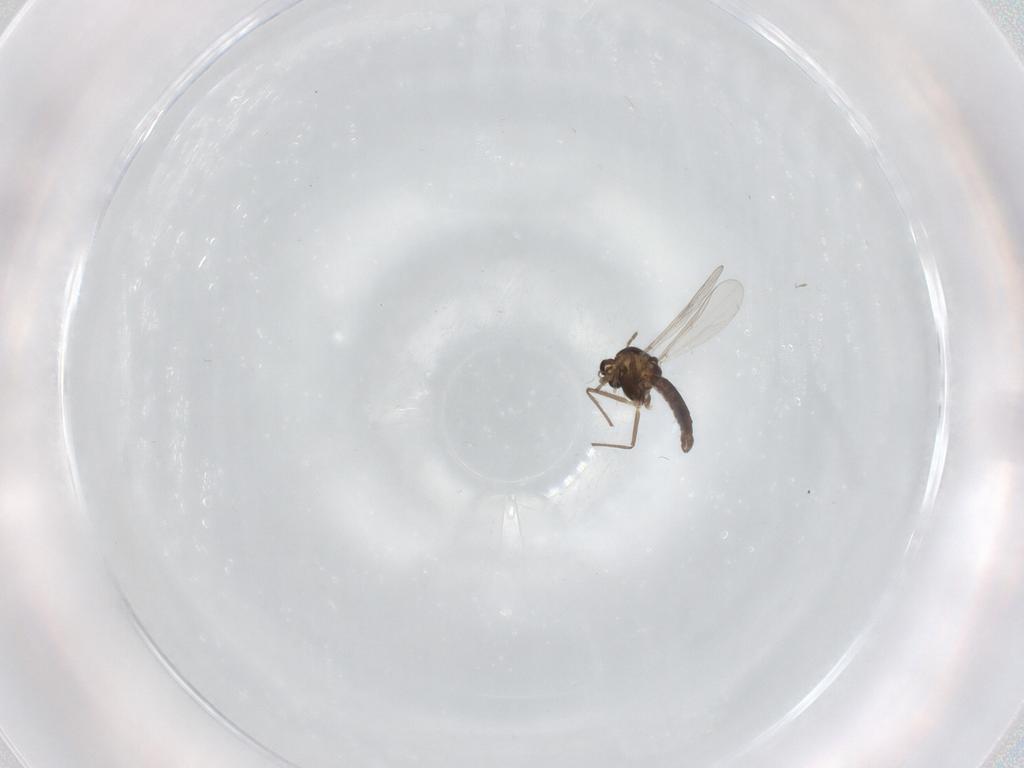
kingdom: Animalia
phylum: Arthropoda
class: Insecta
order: Diptera
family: Chironomidae
